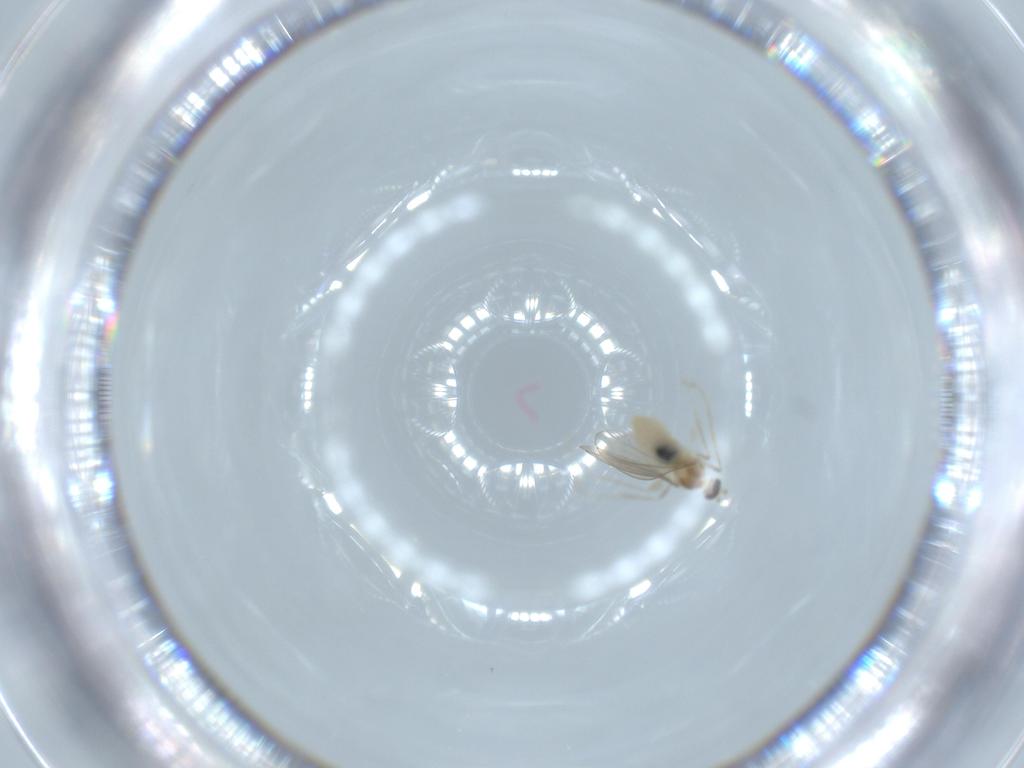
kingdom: Animalia
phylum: Arthropoda
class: Insecta
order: Diptera
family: Cecidomyiidae
